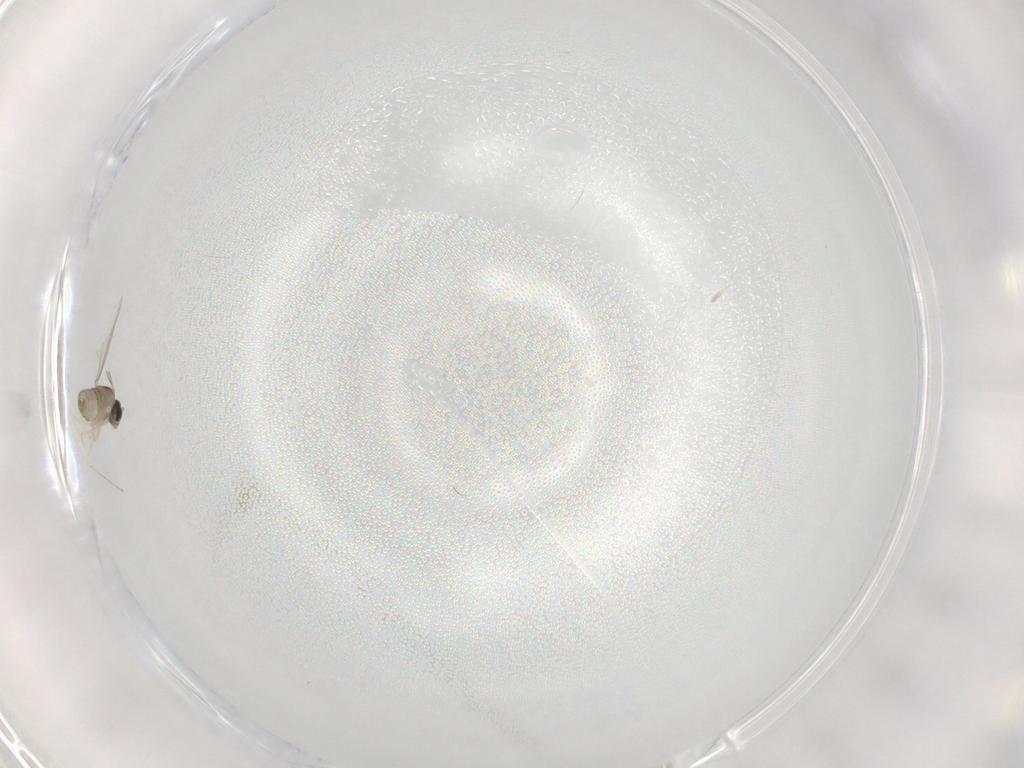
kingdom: Animalia
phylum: Arthropoda
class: Insecta
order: Diptera
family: Cecidomyiidae
